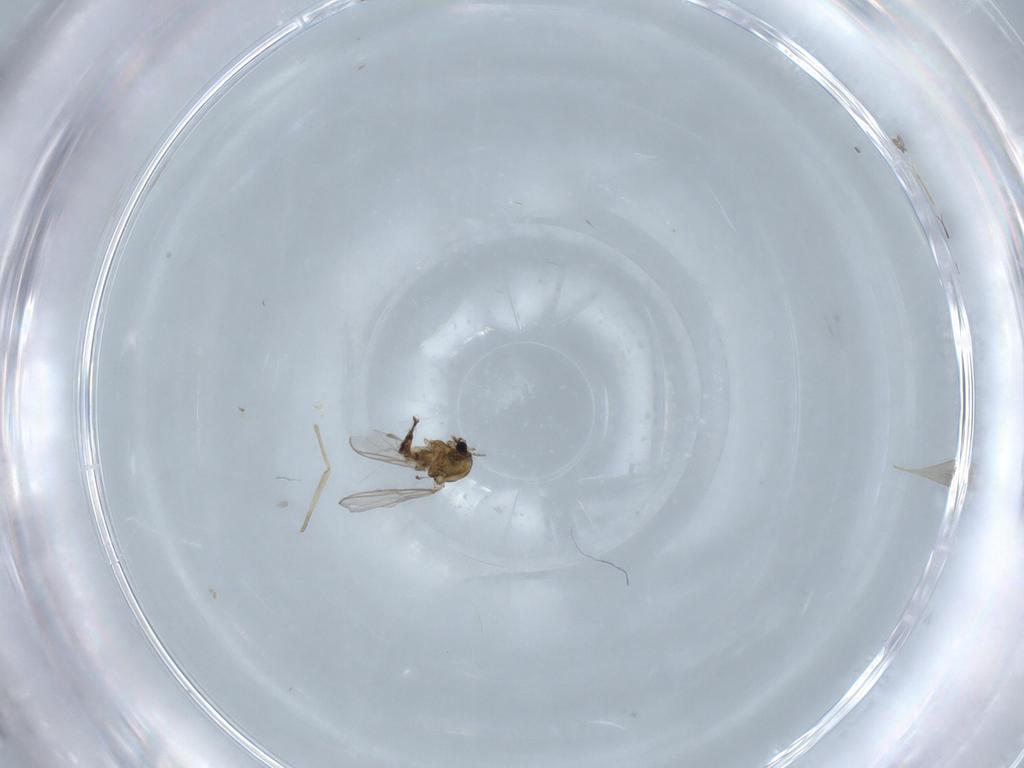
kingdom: Animalia
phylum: Arthropoda
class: Insecta
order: Diptera
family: Chironomidae
